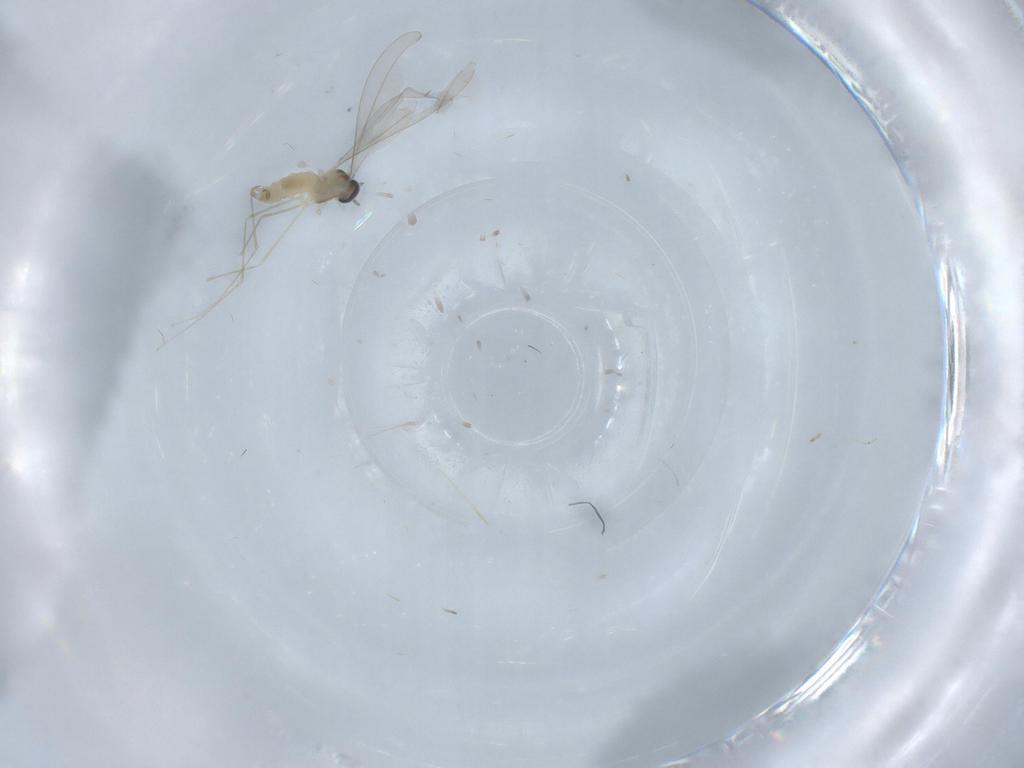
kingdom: Animalia
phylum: Arthropoda
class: Insecta
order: Diptera
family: Cecidomyiidae
